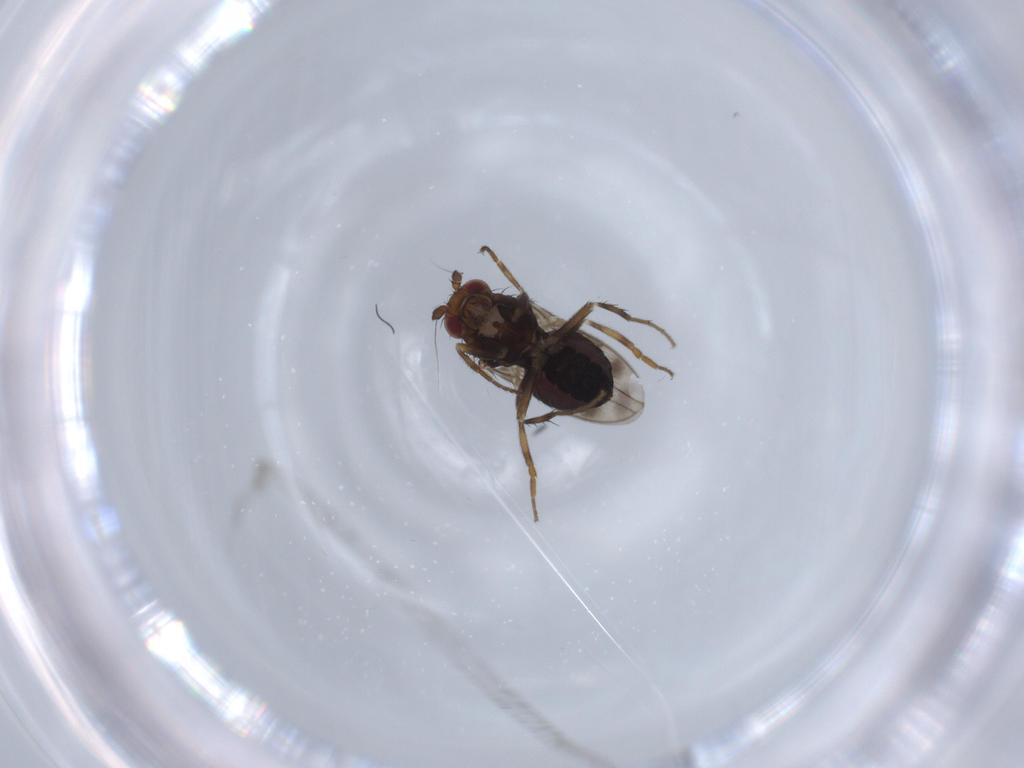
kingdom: Animalia
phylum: Arthropoda
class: Insecta
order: Diptera
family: Sphaeroceridae
